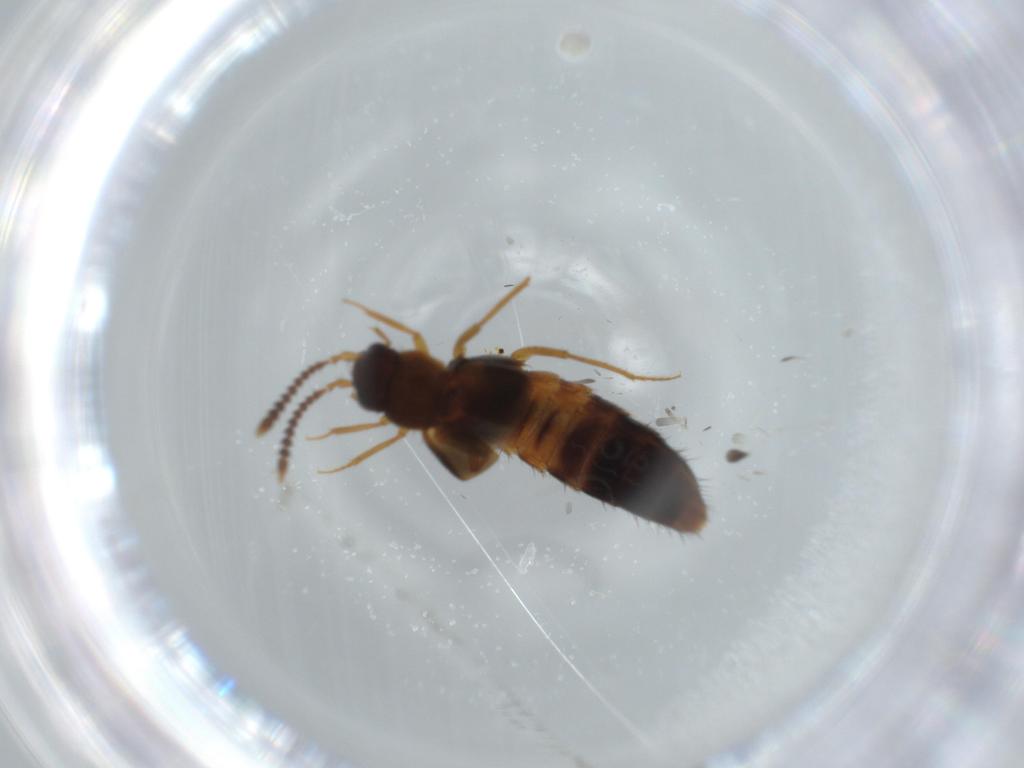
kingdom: Animalia
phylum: Arthropoda
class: Insecta
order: Coleoptera
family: Staphylinidae
